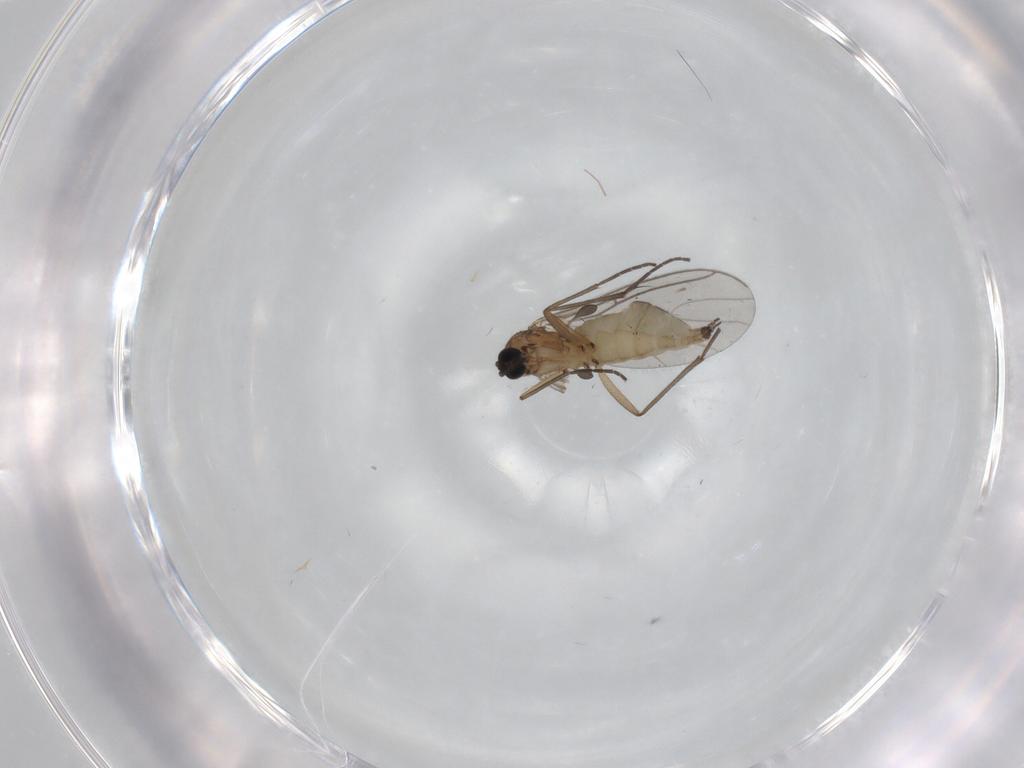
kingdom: Animalia
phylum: Arthropoda
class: Insecta
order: Diptera
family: Sciaridae
